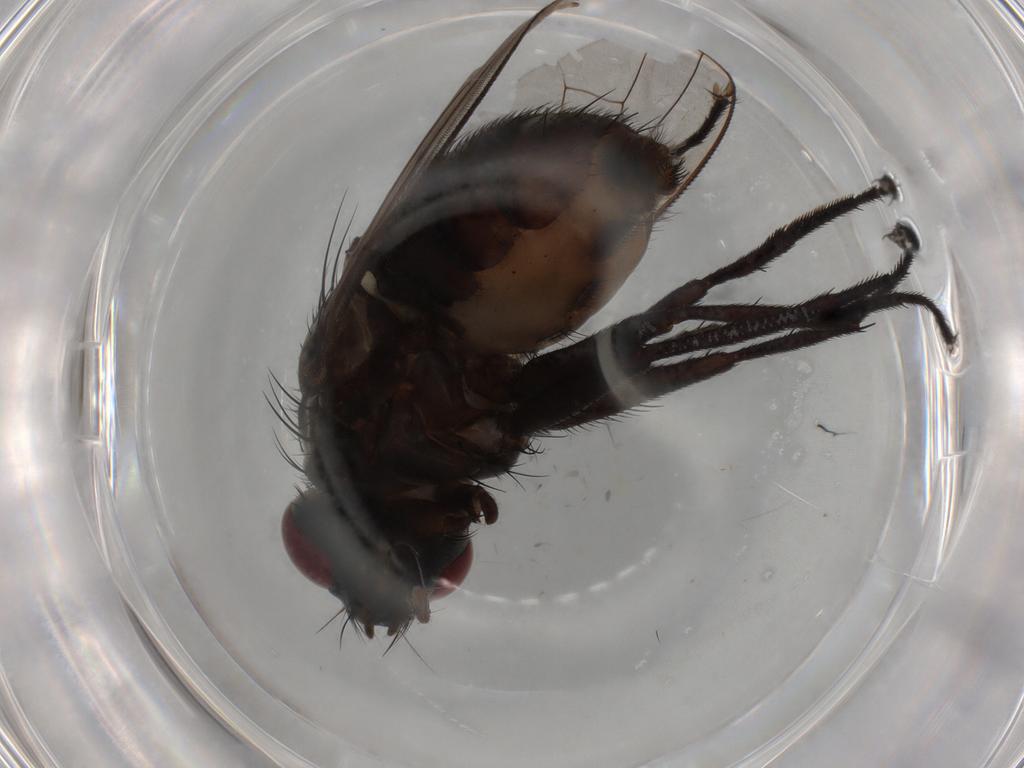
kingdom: Animalia
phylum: Arthropoda
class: Insecta
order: Diptera
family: Muscidae
